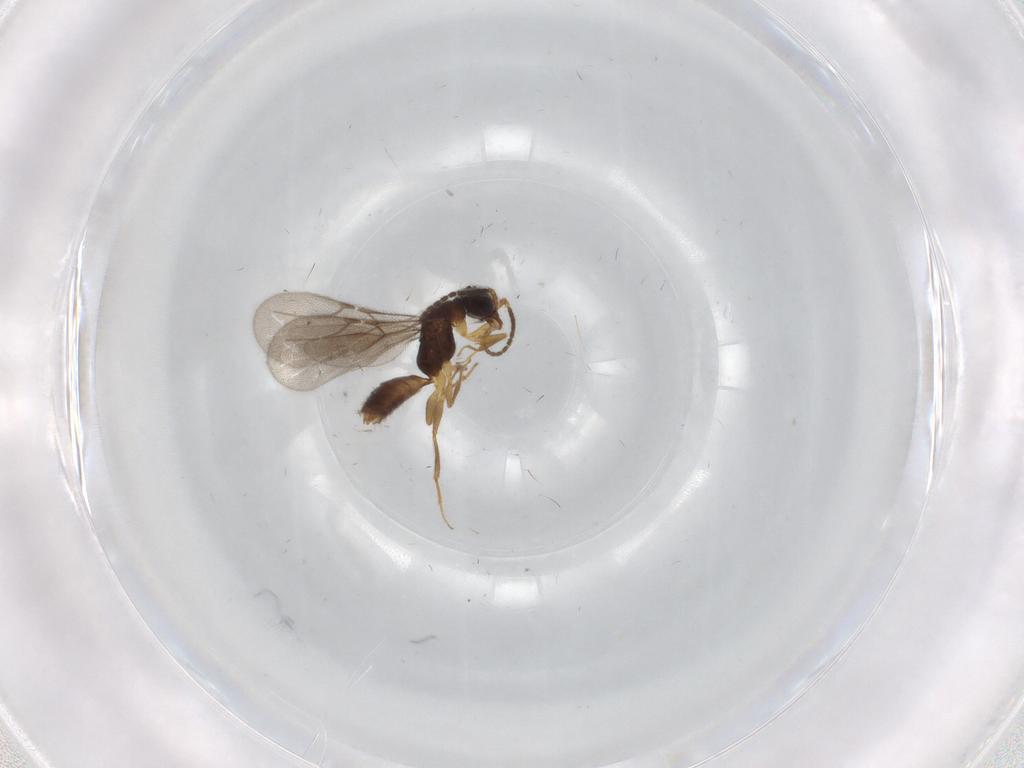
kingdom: Animalia
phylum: Arthropoda
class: Insecta
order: Hymenoptera
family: Bethylidae
